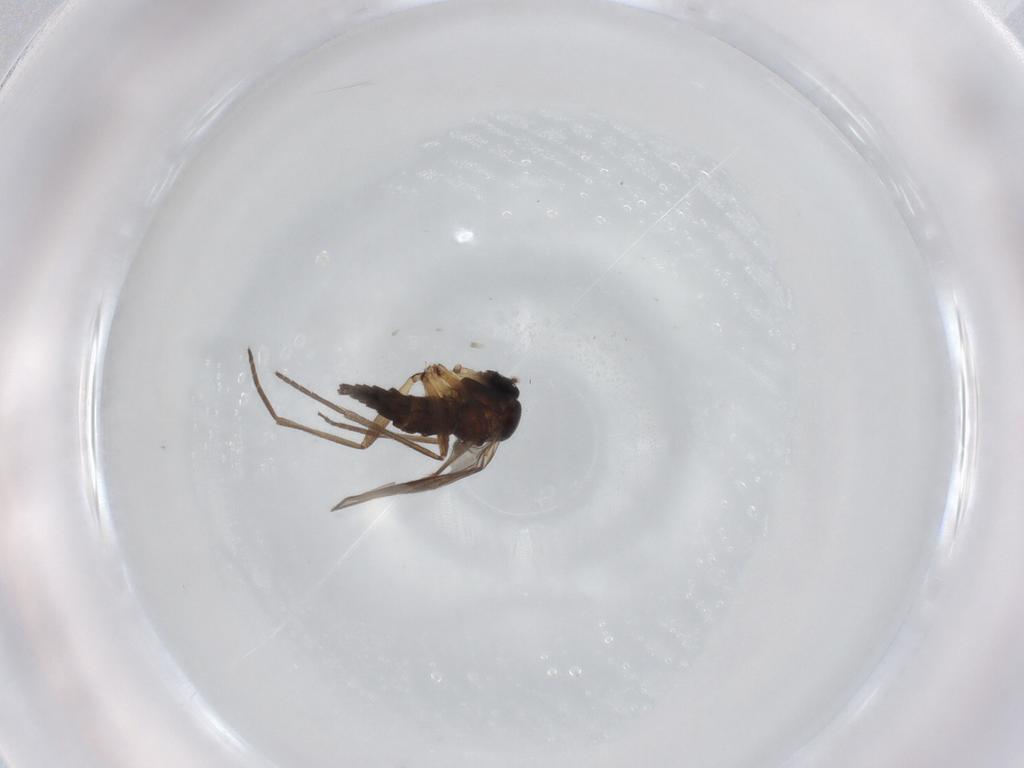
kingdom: Animalia
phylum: Arthropoda
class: Insecta
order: Diptera
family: Sciaridae
